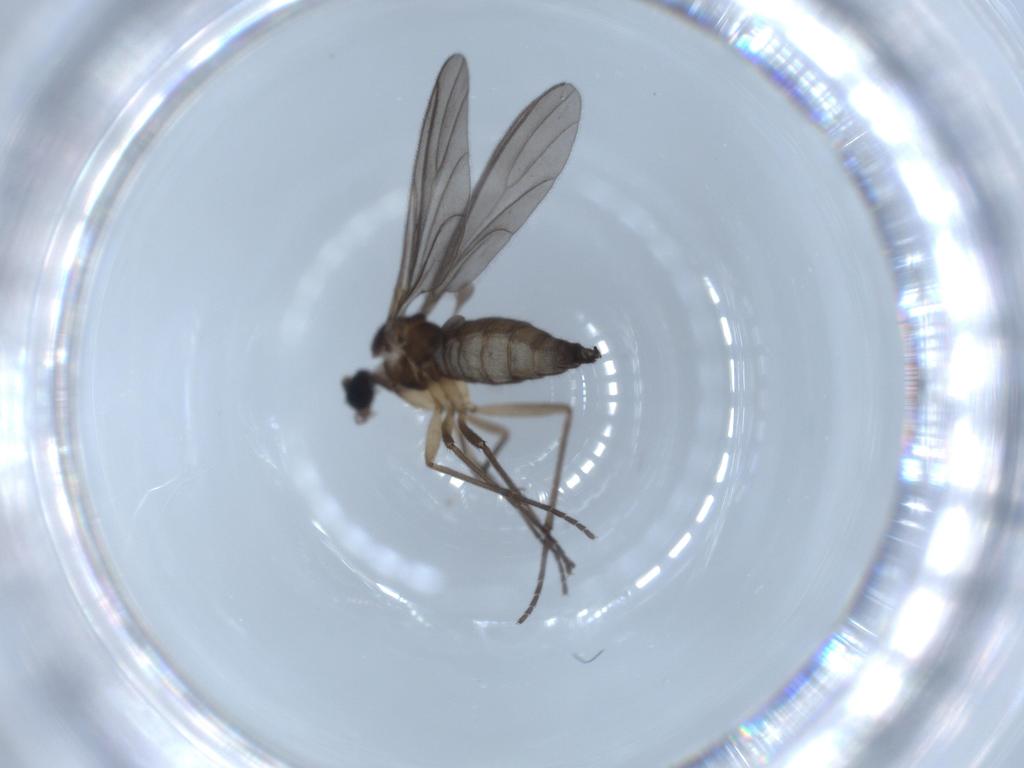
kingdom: Animalia
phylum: Arthropoda
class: Insecta
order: Diptera
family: Sciaridae
